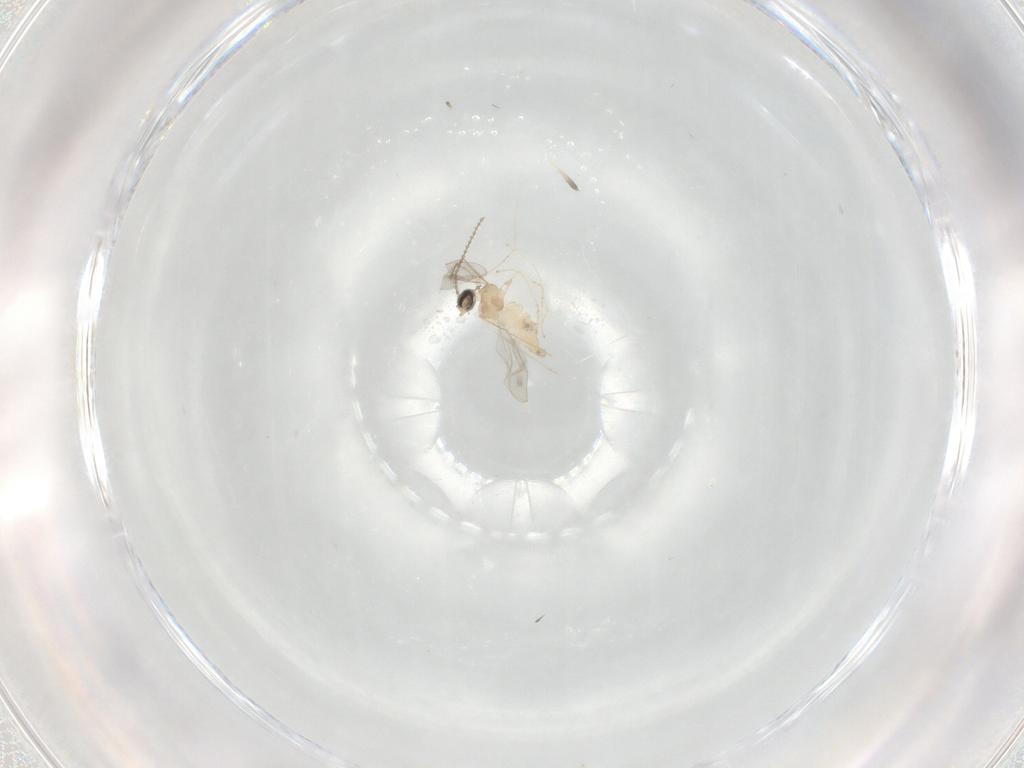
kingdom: Animalia
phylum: Arthropoda
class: Insecta
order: Diptera
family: Cecidomyiidae
